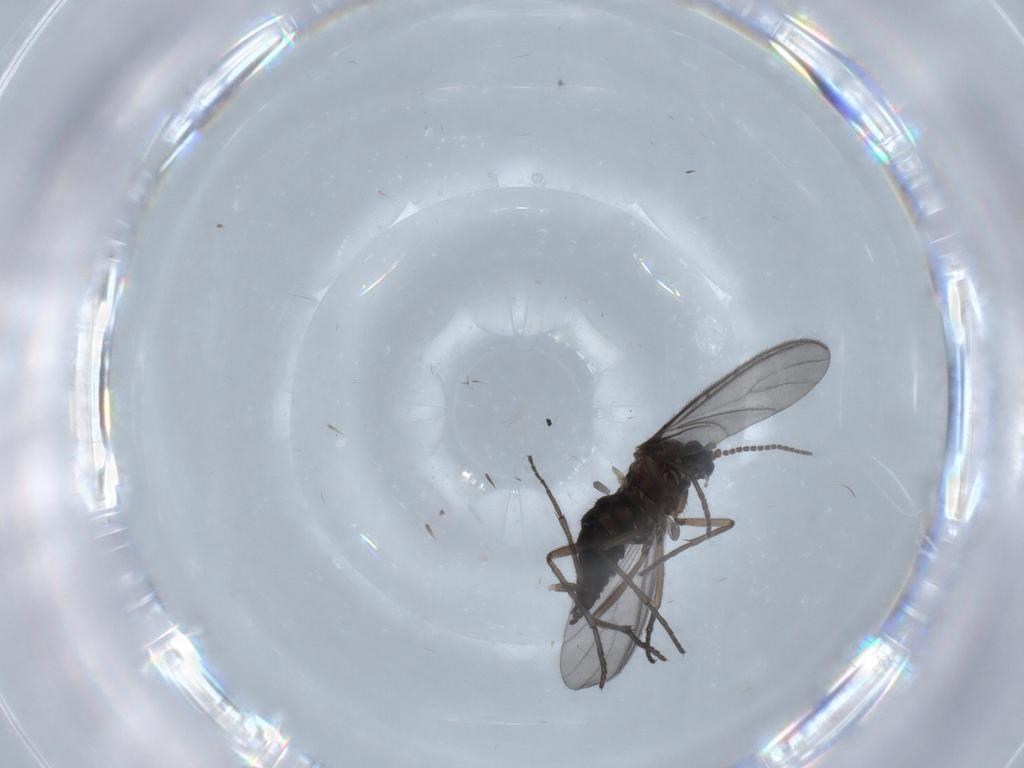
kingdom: Animalia
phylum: Arthropoda
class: Insecta
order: Diptera
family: Sciaridae
